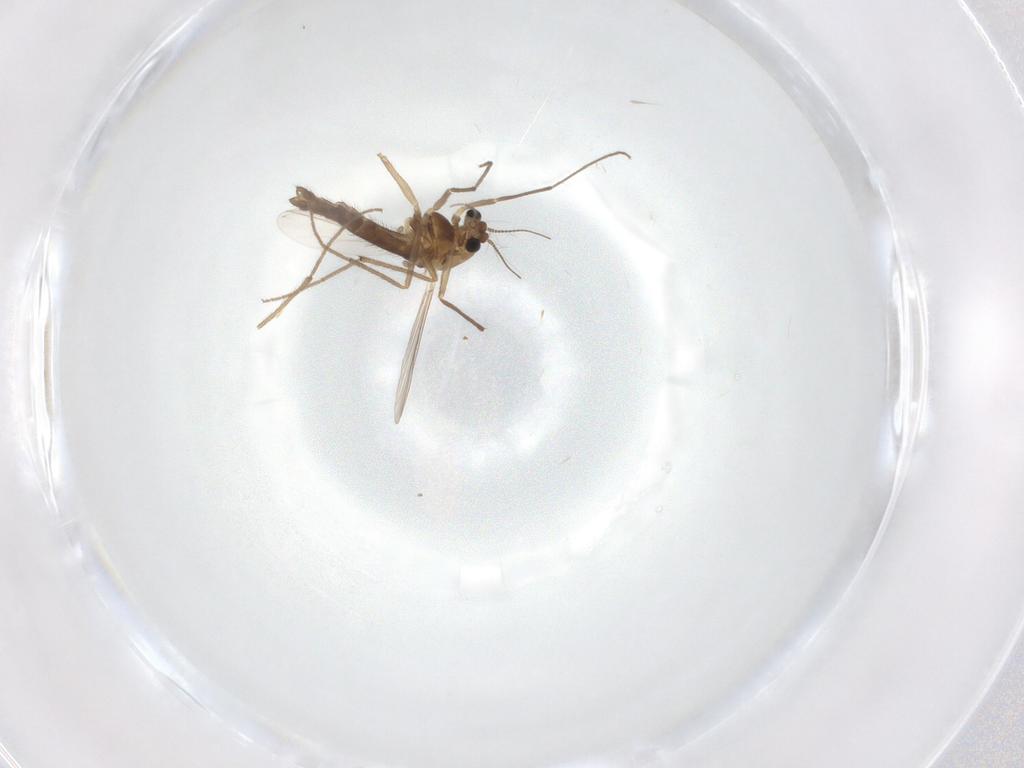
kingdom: Animalia
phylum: Arthropoda
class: Insecta
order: Diptera
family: Chironomidae
